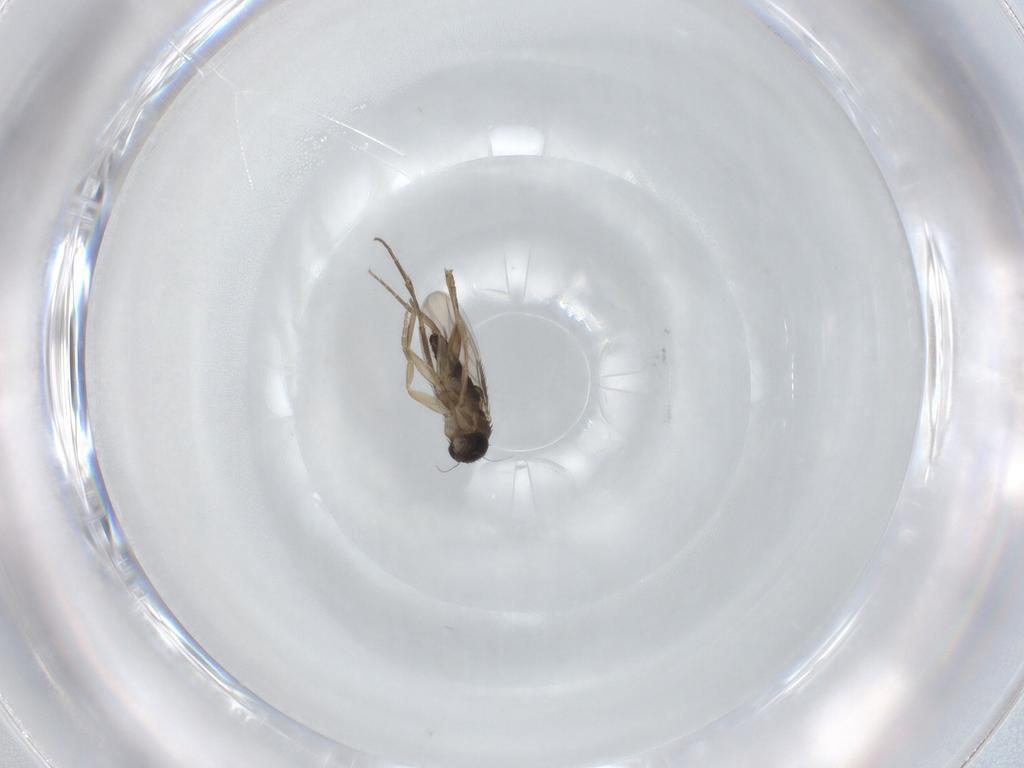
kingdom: Animalia
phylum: Arthropoda
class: Insecta
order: Diptera
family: Phoridae
